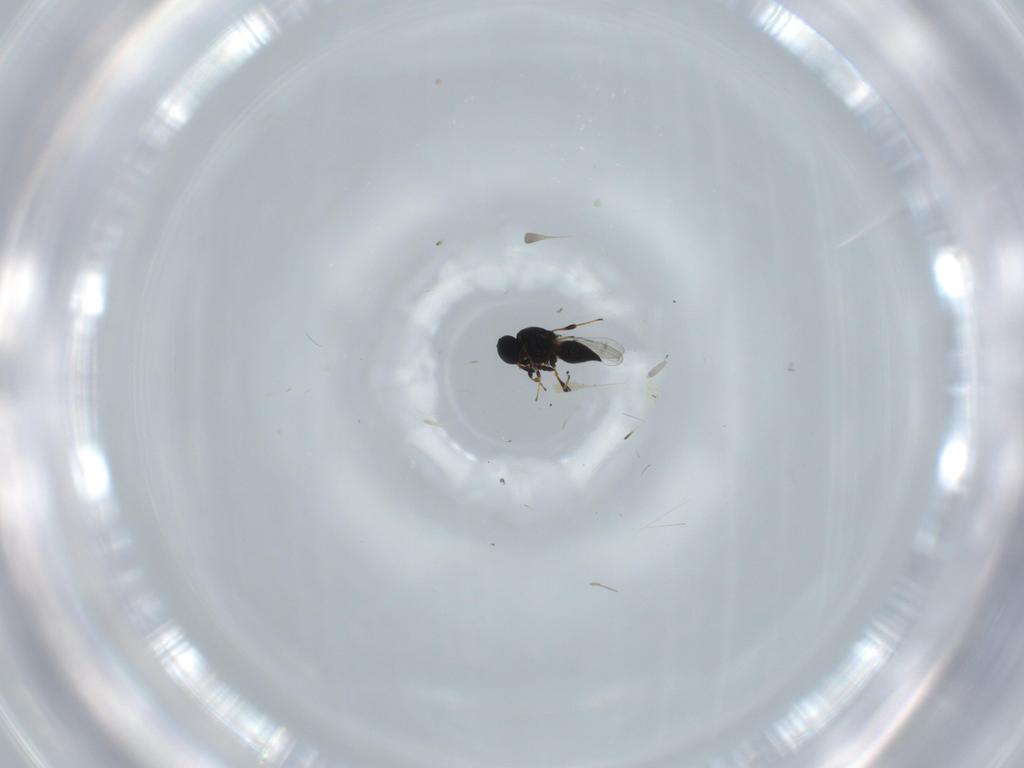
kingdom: Animalia
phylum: Arthropoda
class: Insecta
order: Hymenoptera
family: Platygastridae
